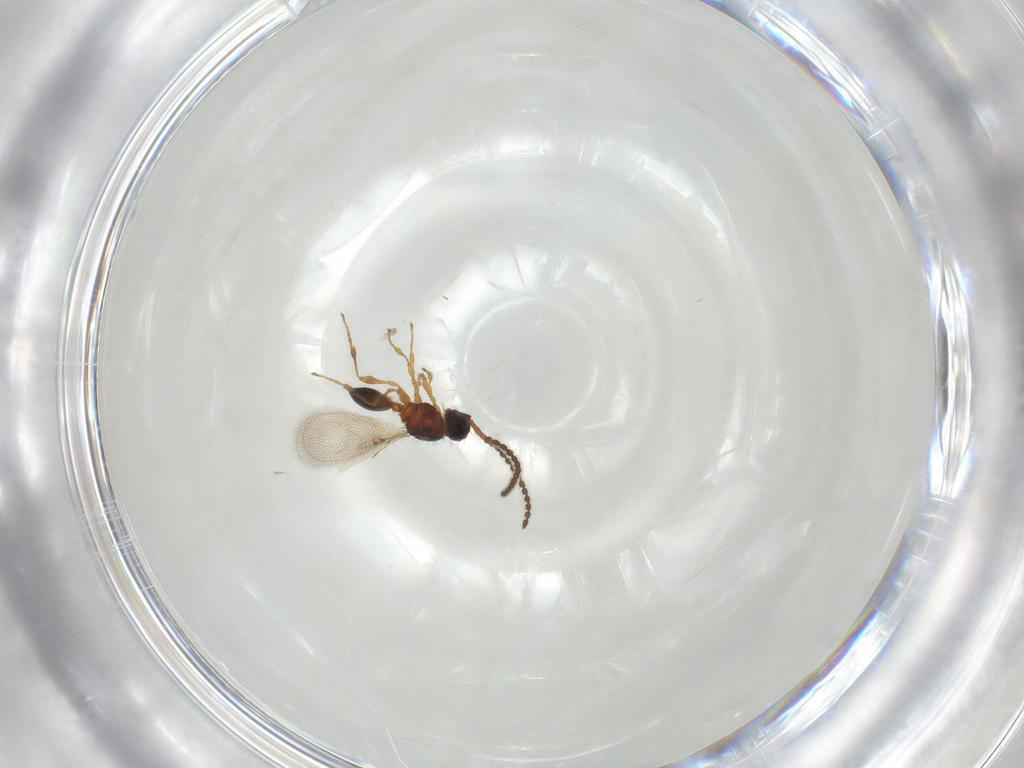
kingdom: Animalia
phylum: Arthropoda
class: Insecta
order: Hymenoptera
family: Diapriidae
